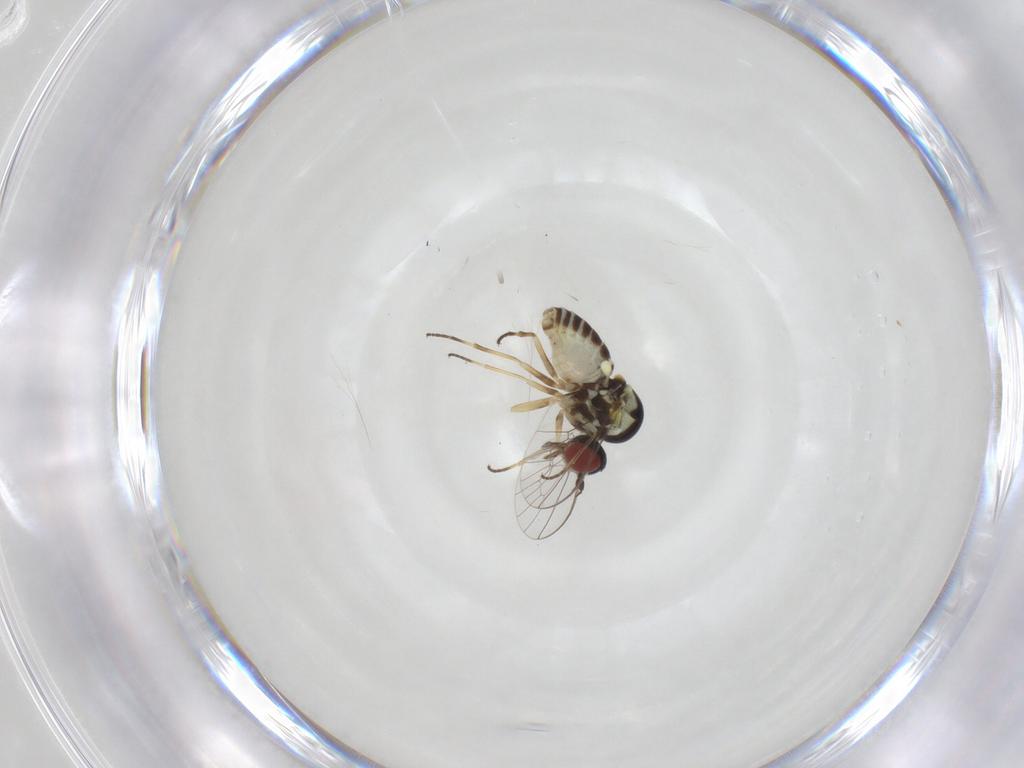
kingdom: Animalia
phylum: Arthropoda
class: Insecta
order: Diptera
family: Bombyliidae
